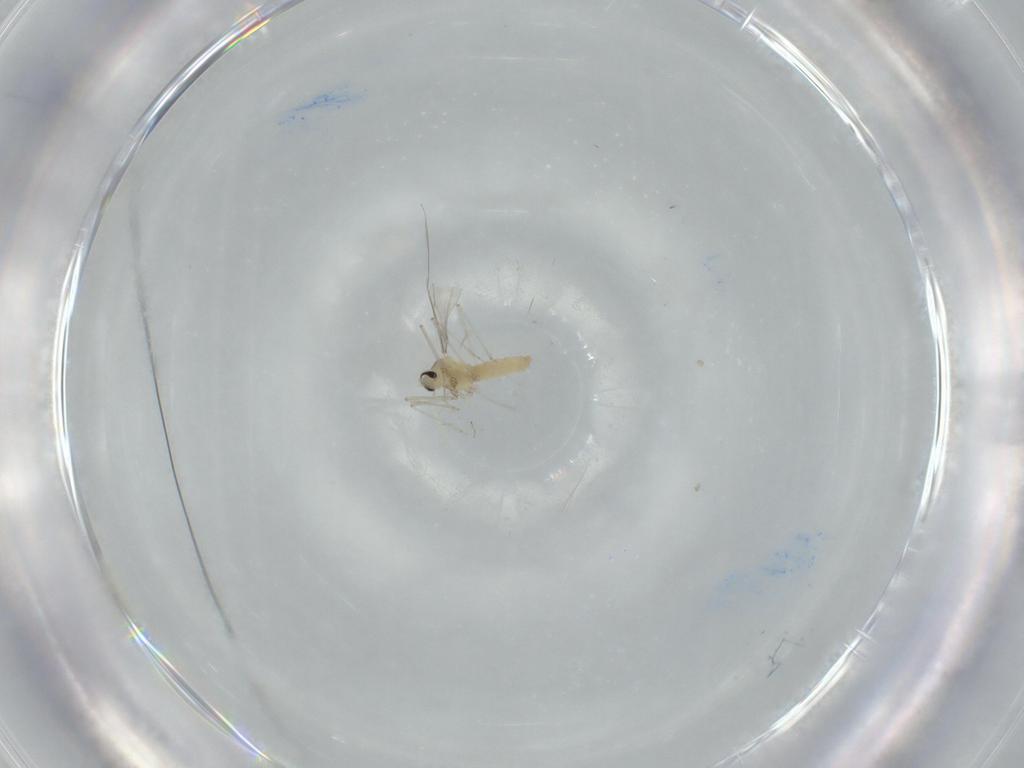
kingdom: Animalia
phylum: Arthropoda
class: Insecta
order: Diptera
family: Cecidomyiidae
